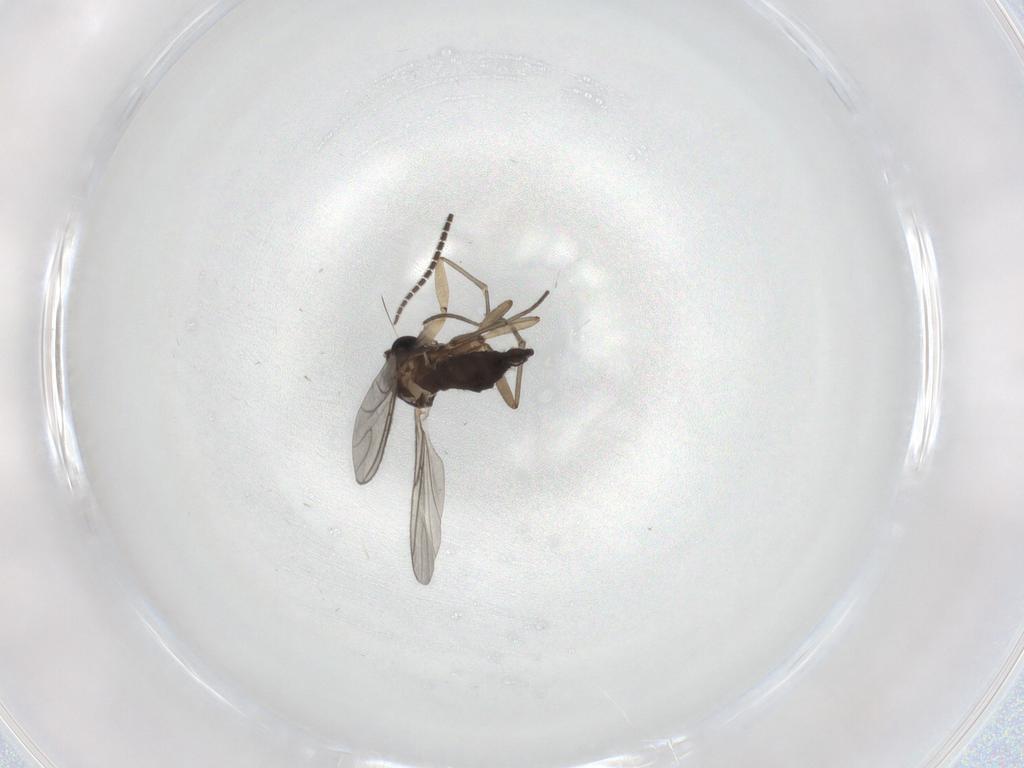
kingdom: Animalia
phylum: Arthropoda
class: Insecta
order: Diptera
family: Sciaridae
